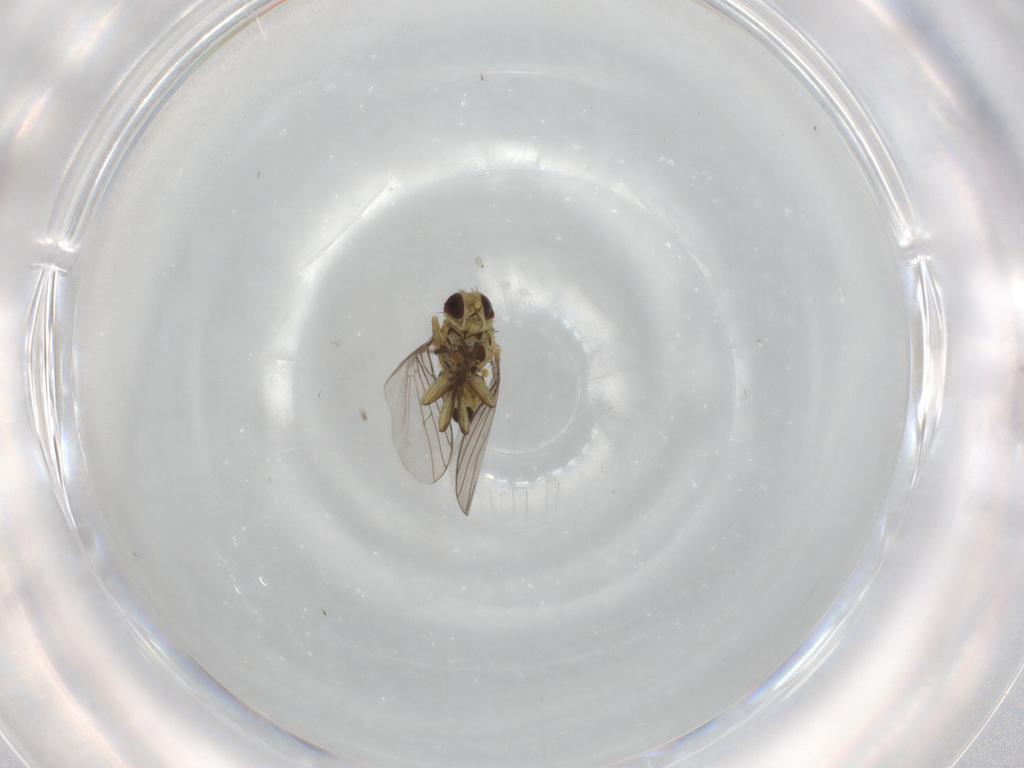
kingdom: Animalia
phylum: Arthropoda
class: Insecta
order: Diptera
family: Agromyzidae
